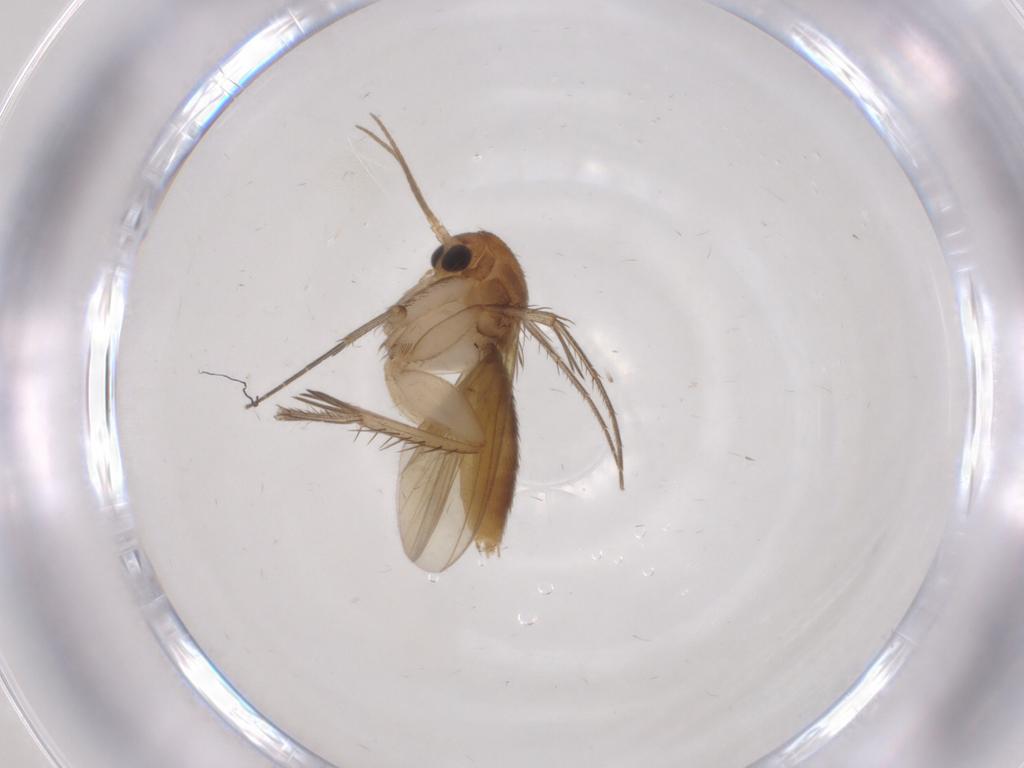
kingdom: Animalia
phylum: Arthropoda
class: Insecta
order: Diptera
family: Mycetophilidae
